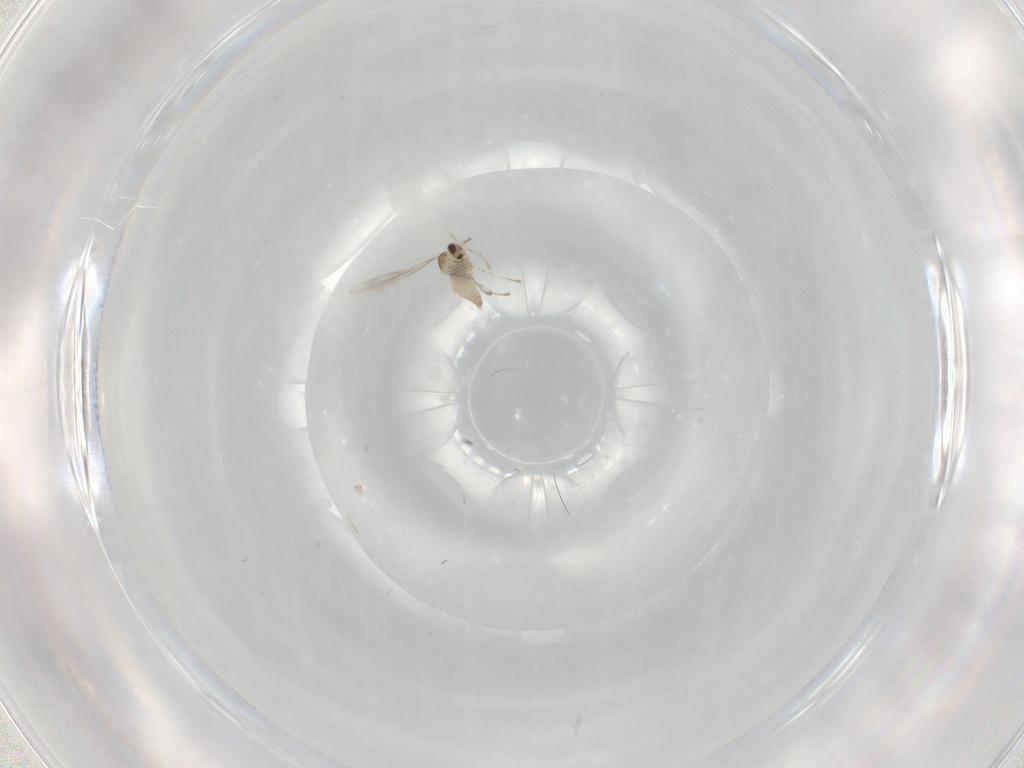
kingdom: Animalia
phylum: Arthropoda
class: Insecta
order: Diptera
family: Cecidomyiidae
